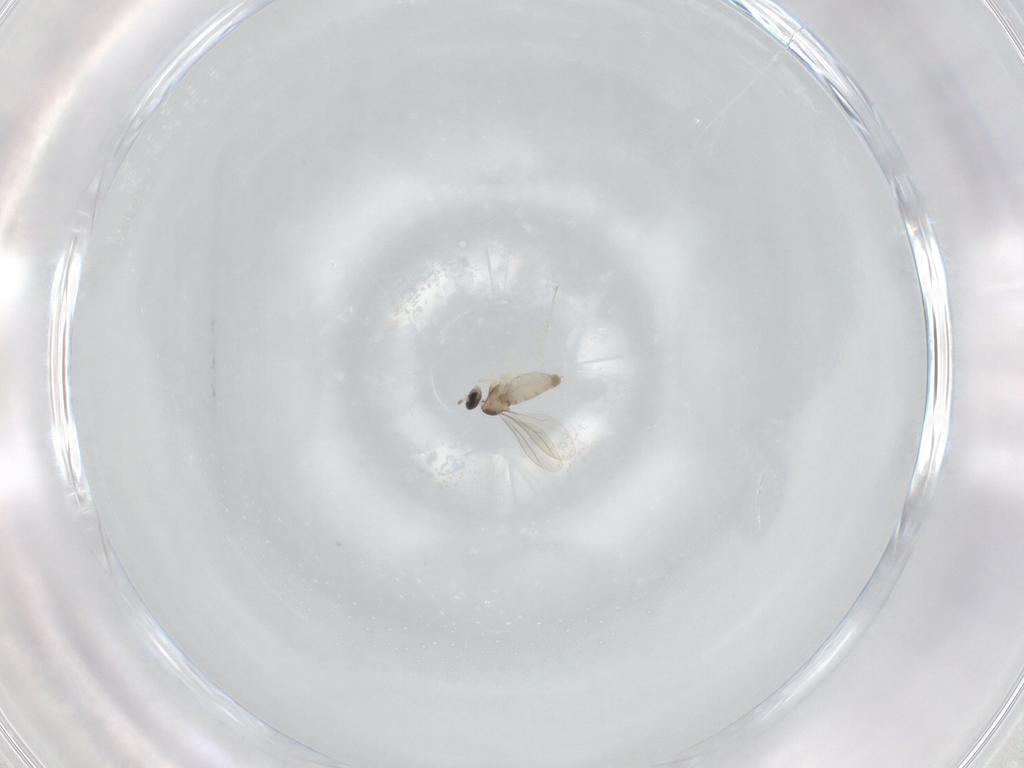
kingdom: Animalia
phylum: Arthropoda
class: Insecta
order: Diptera
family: Cecidomyiidae
